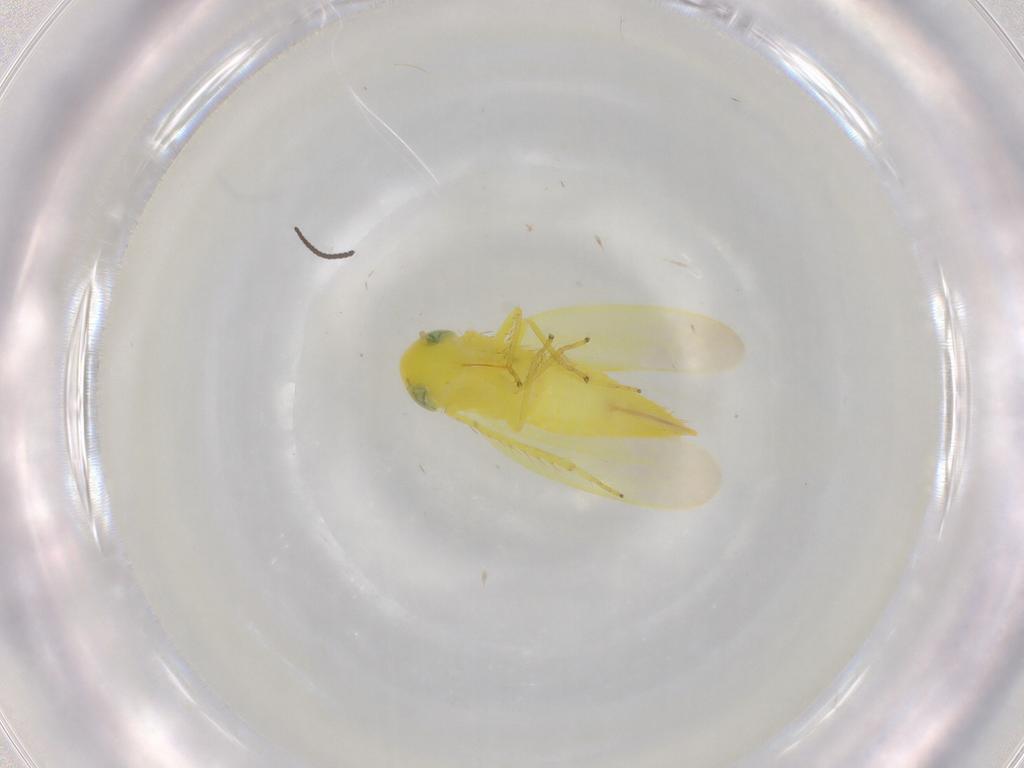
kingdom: Animalia
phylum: Arthropoda
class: Insecta
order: Hemiptera
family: Cicadellidae
